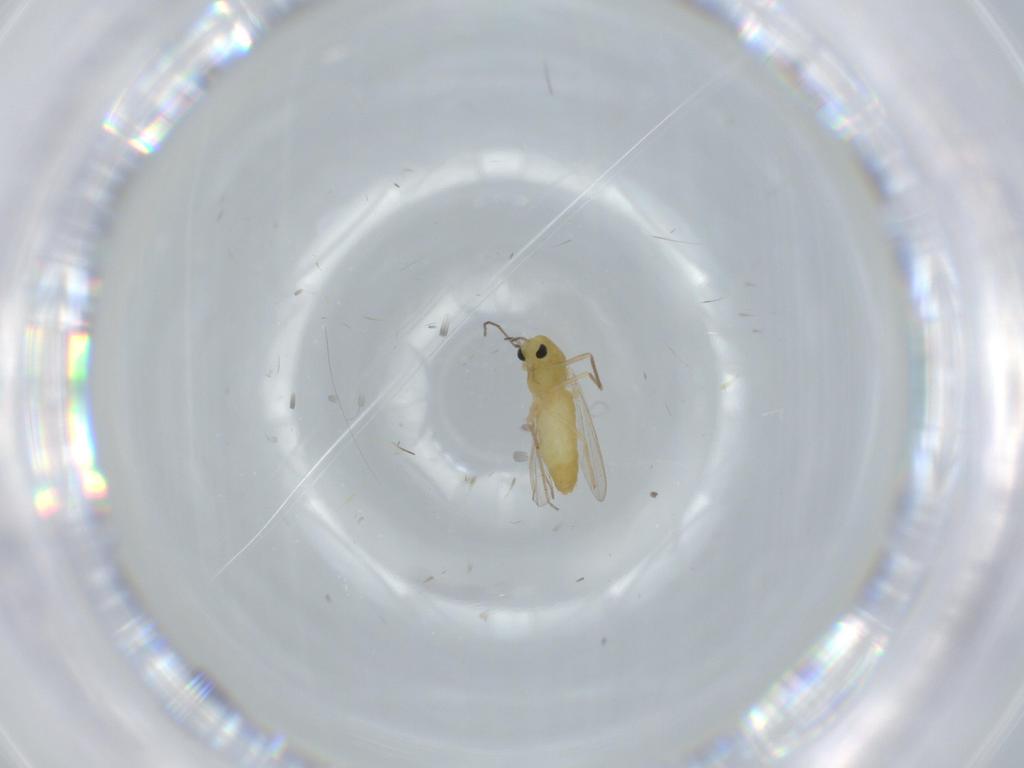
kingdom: Animalia
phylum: Arthropoda
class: Insecta
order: Diptera
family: Chironomidae
